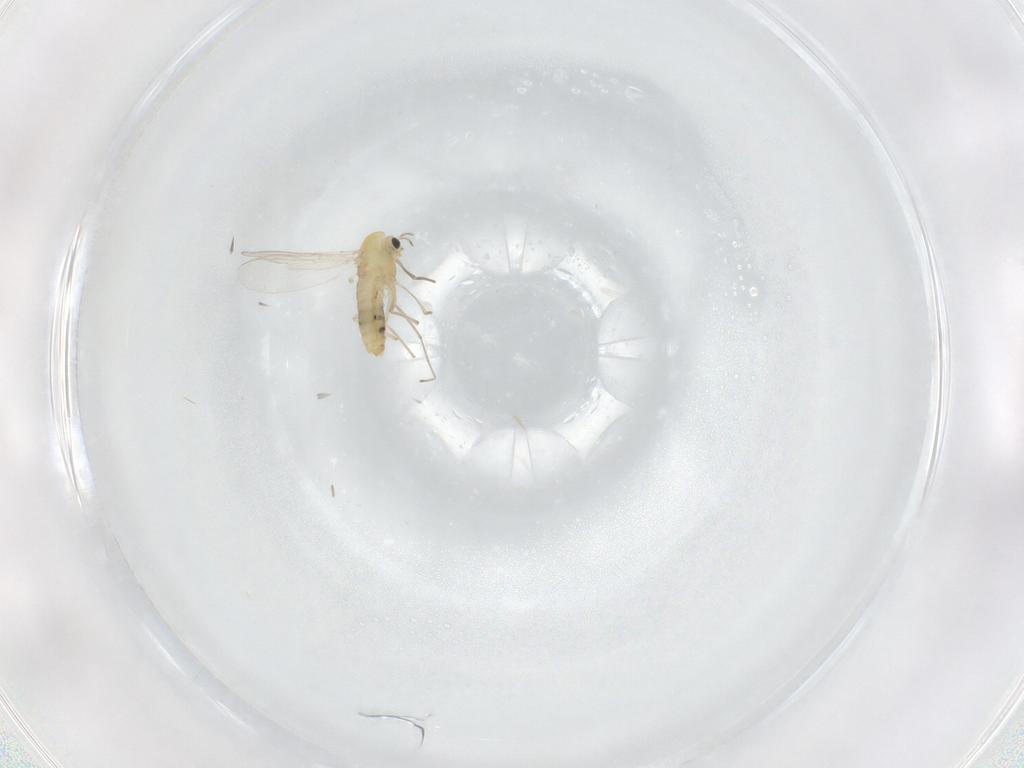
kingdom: Animalia
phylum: Arthropoda
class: Insecta
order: Diptera
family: Chironomidae
